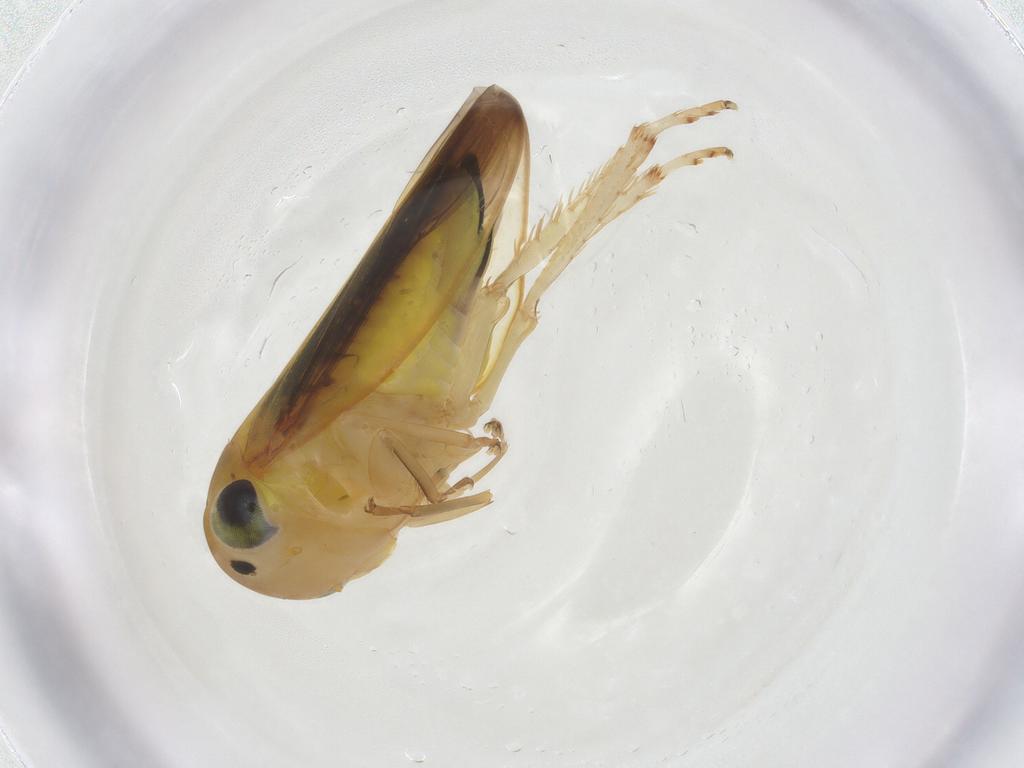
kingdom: Animalia
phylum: Arthropoda
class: Insecta
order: Hemiptera
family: Cicadellidae
